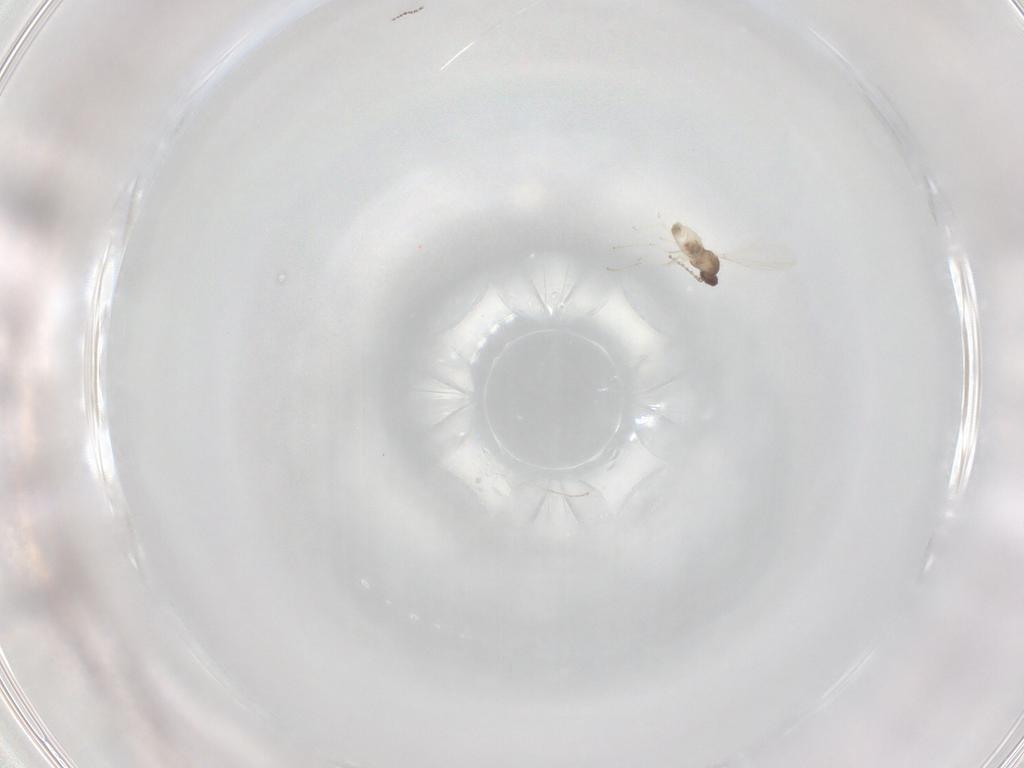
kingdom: Animalia
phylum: Arthropoda
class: Insecta
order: Diptera
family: Cecidomyiidae
